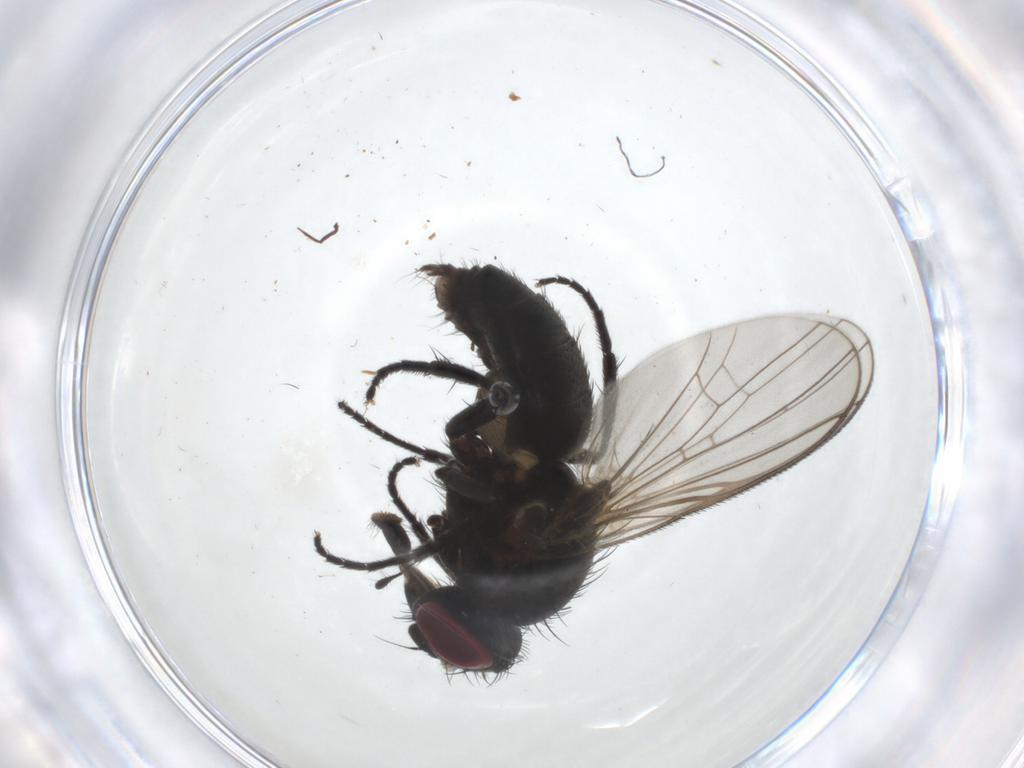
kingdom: Animalia
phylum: Arthropoda
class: Insecta
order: Diptera
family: Fannia
